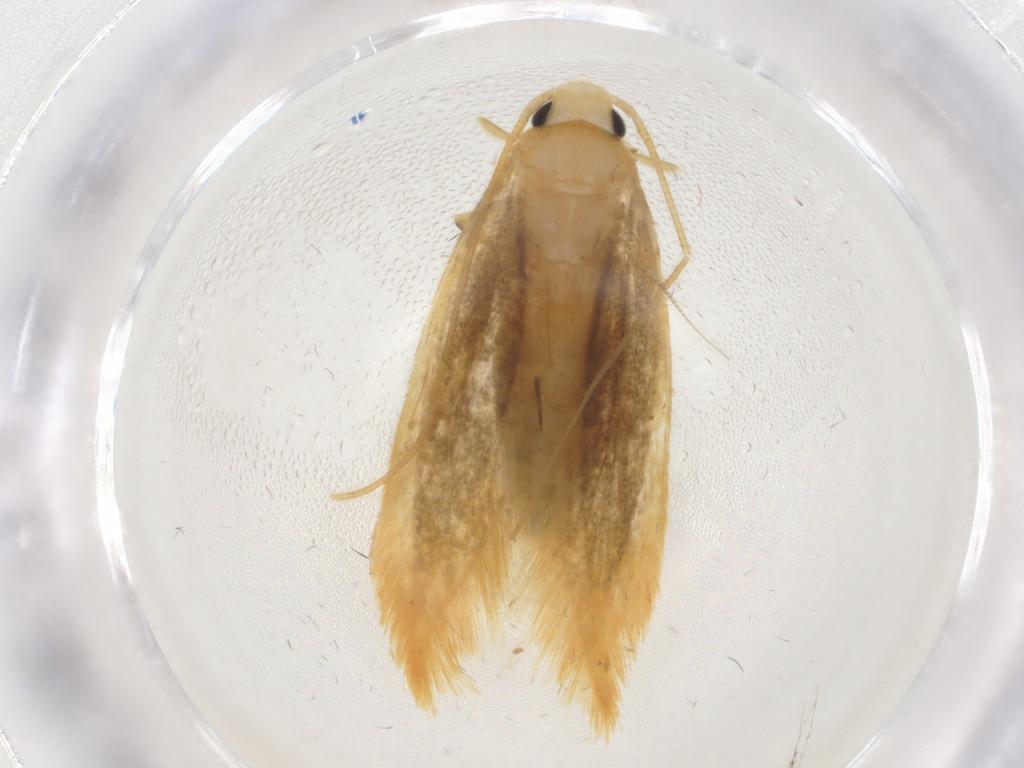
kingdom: Animalia
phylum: Arthropoda
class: Insecta
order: Lepidoptera
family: Tineidae
